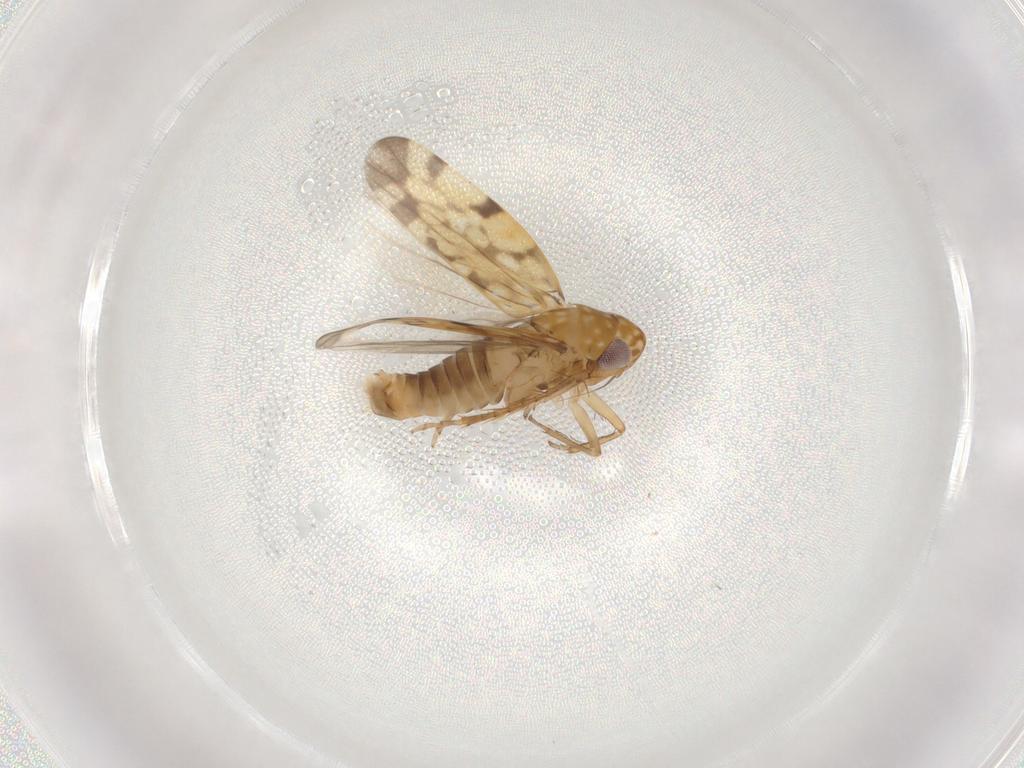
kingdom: Animalia
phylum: Arthropoda
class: Insecta
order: Hemiptera
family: Cicadellidae
